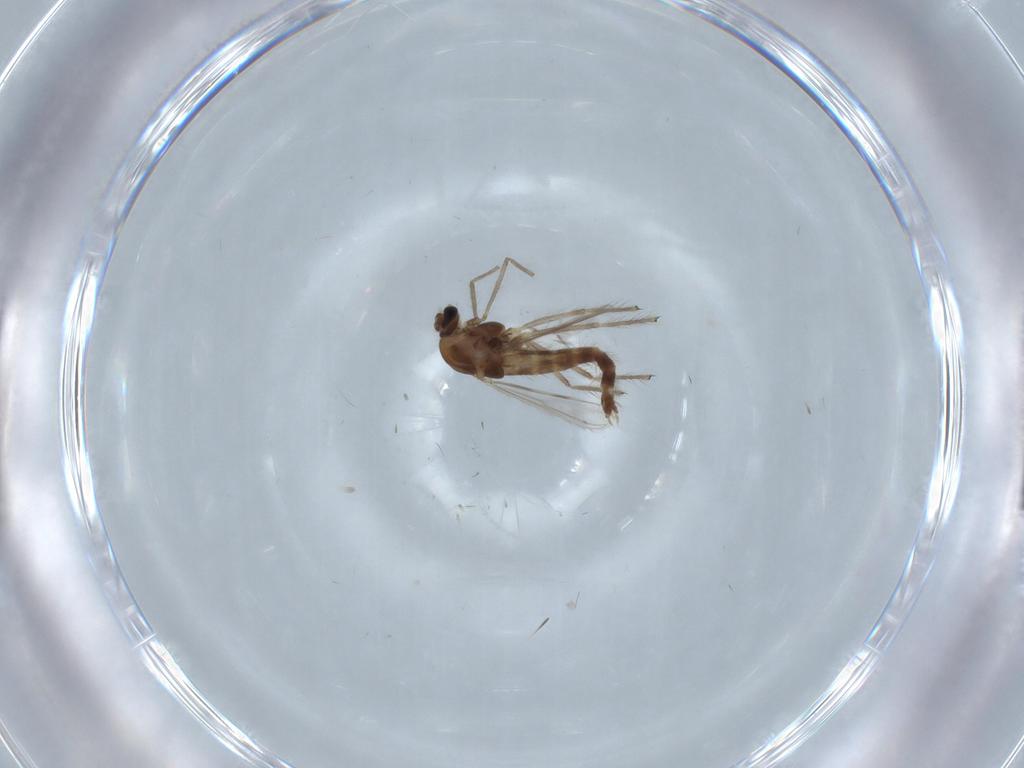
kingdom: Animalia
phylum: Arthropoda
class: Insecta
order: Diptera
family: Chironomidae
